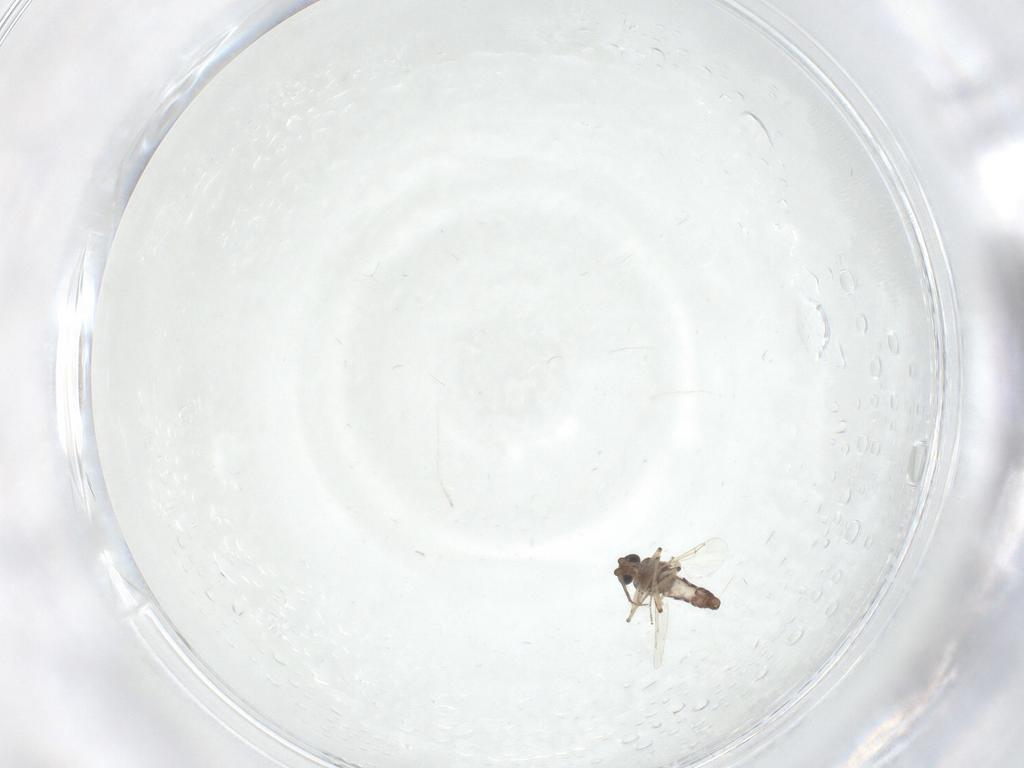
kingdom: Animalia
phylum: Arthropoda
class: Insecta
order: Diptera
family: Ceratopogonidae
